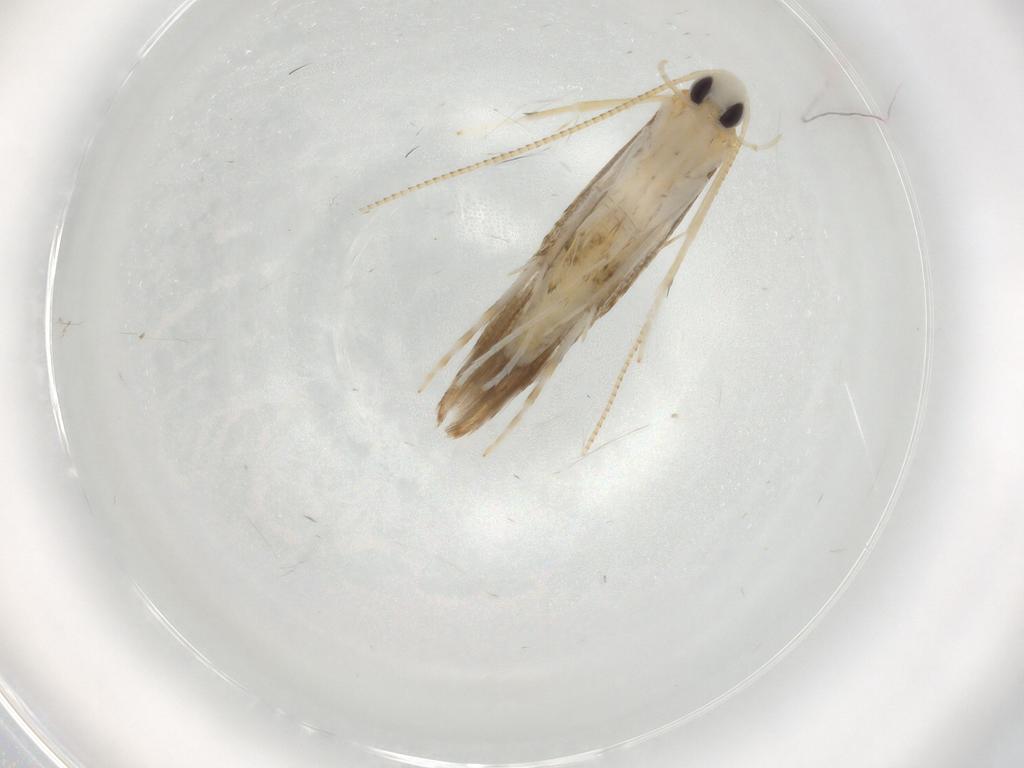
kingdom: Animalia
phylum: Arthropoda
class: Insecta
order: Lepidoptera
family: Gracillariidae
